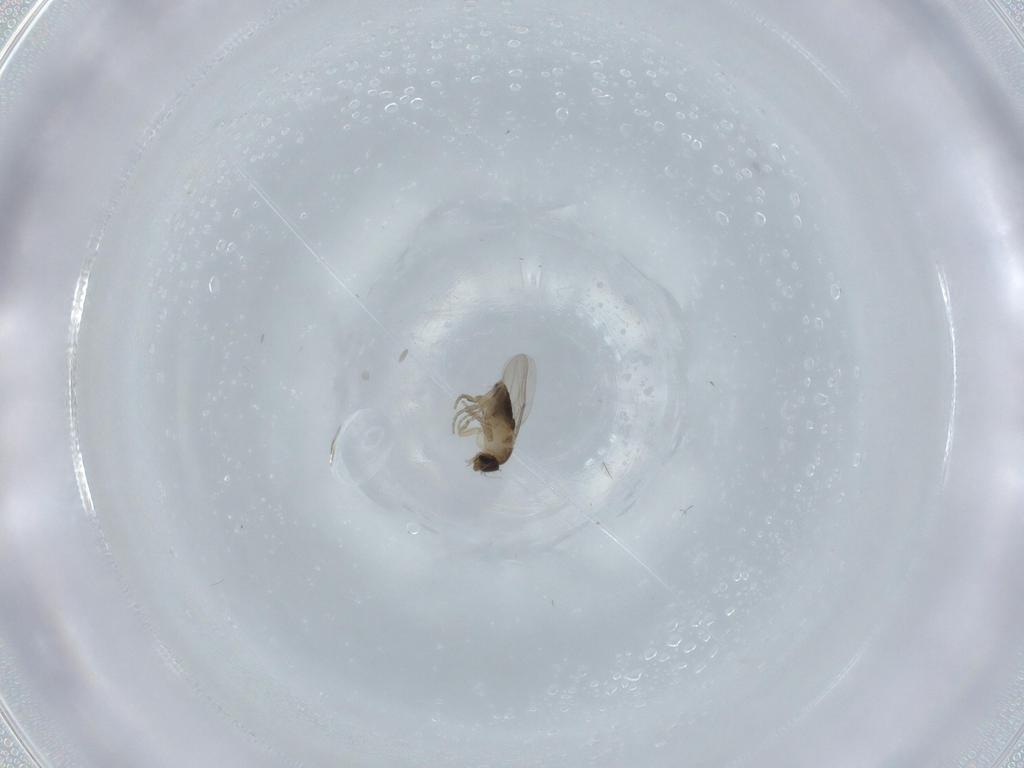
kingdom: Animalia
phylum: Arthropoda
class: Insecta
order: Diptera
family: Phoridae
